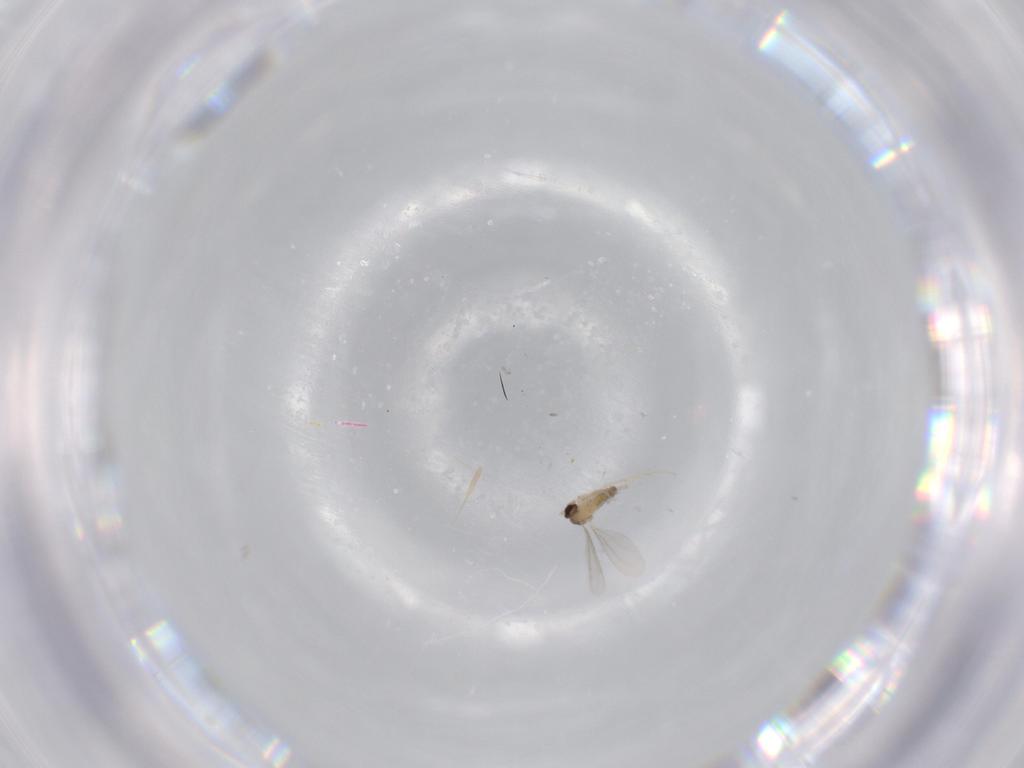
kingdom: Animalia
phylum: Arthropoda
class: Insecta
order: Diptera
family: Cecidomyiidae
